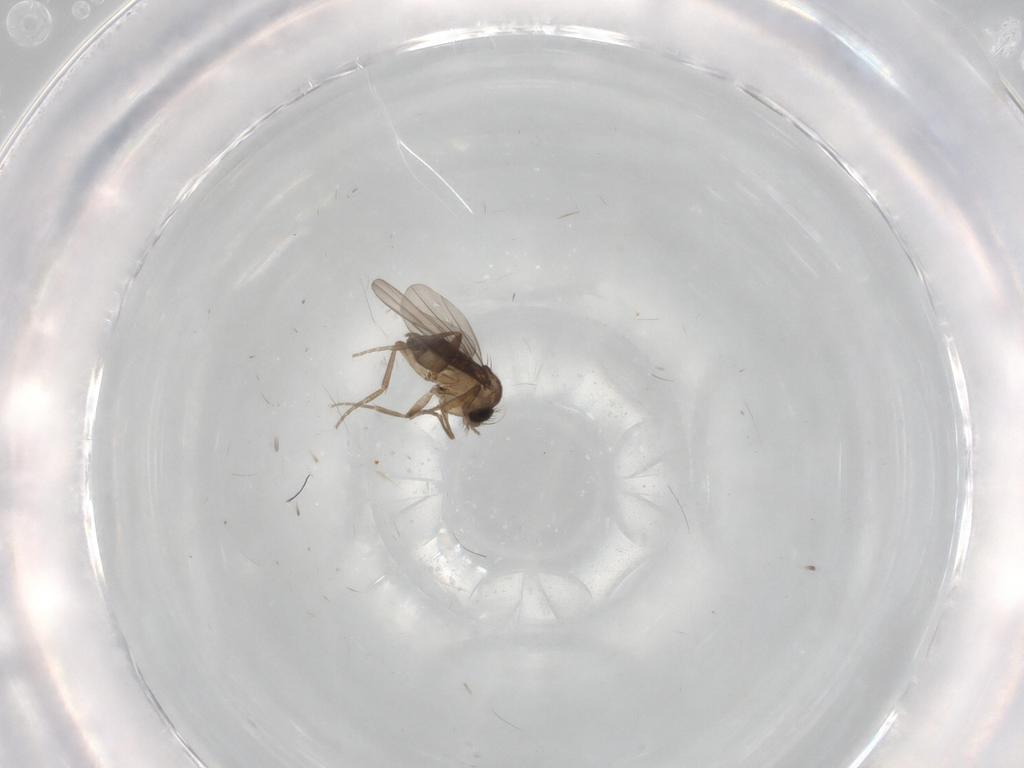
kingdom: Animalia
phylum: Arthropoda
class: Insecta
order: Diptera
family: Phoridae
